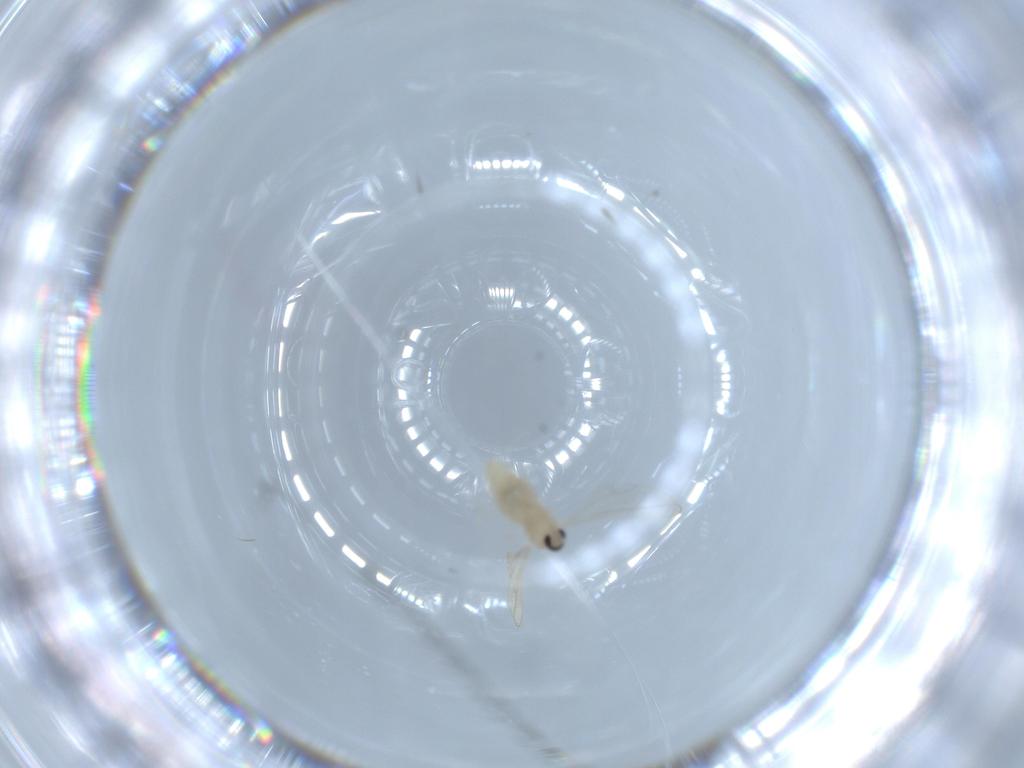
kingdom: Animalia
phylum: Arthropoda
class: Insecta
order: Diptera
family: Cecidomyiidae
